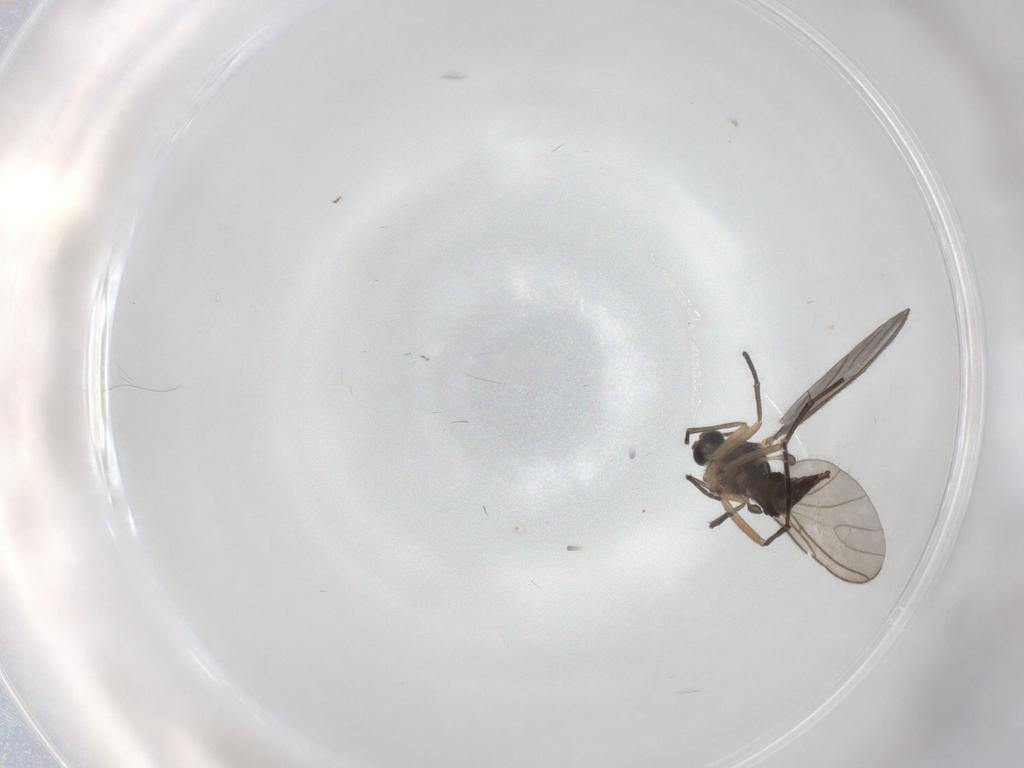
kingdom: Animalia
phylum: Arthropoda
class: Insecta
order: Diptera
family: Sciaridae
